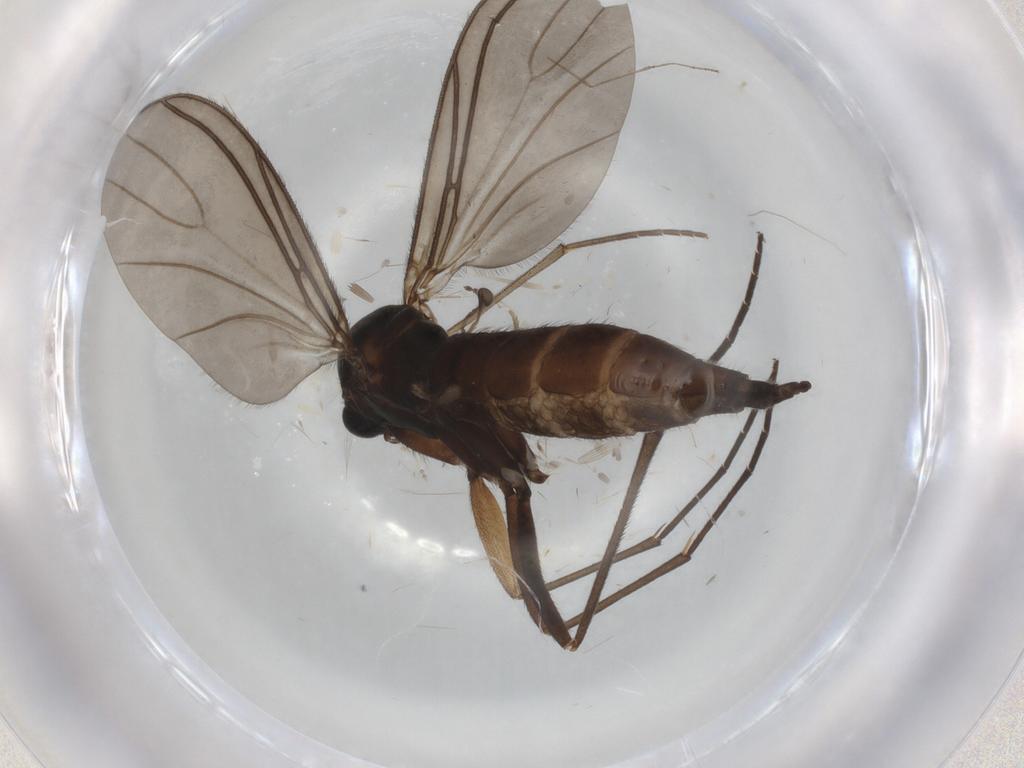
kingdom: Animalia
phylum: Arthropoda
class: Insecta
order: Diptera
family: Psychodidae
